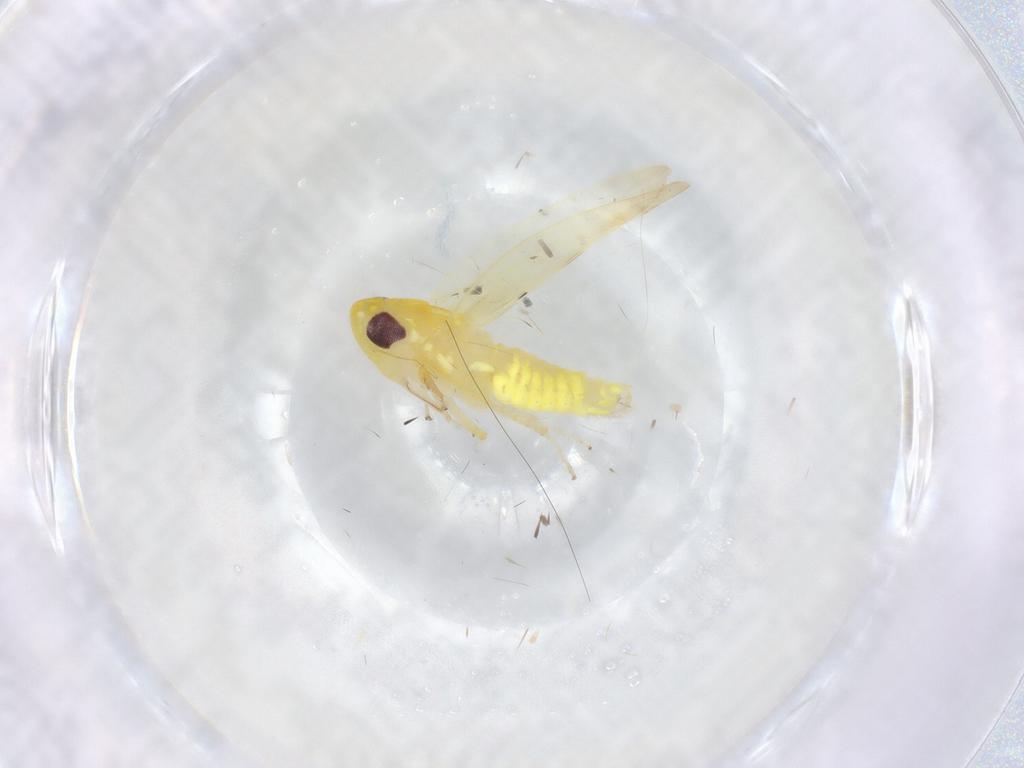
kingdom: Animalia
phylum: Arthropoda
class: Insecta
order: Hemiptera
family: Cicadellidae
